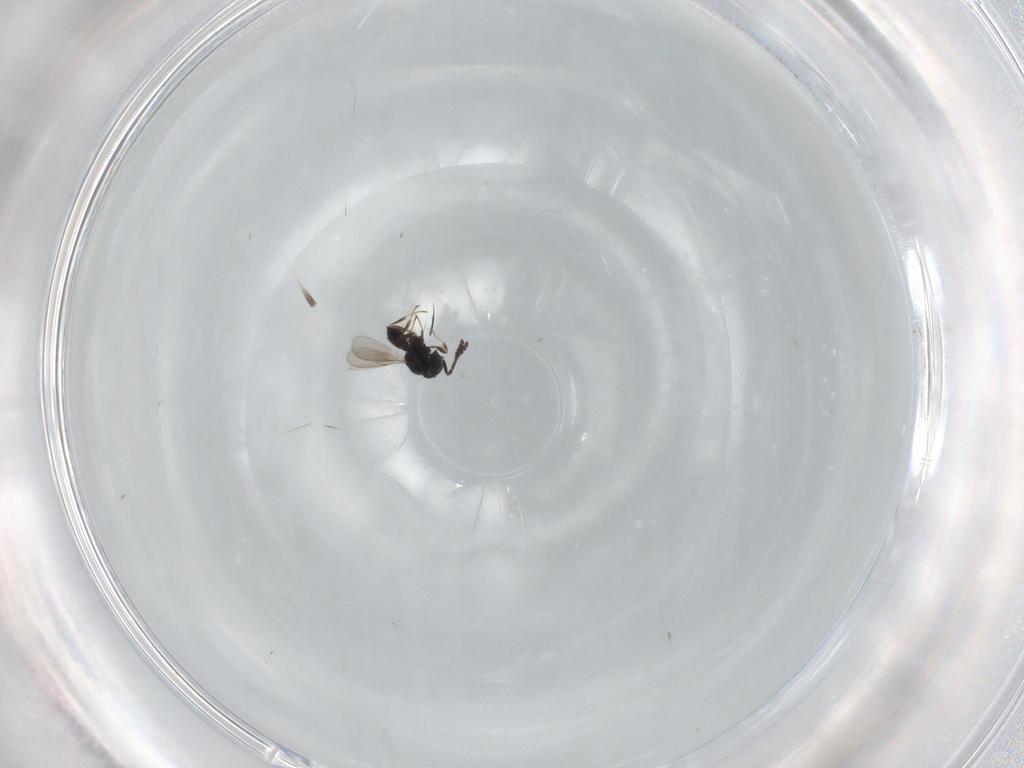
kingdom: Animalia
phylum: Arthropoda
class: Insecta
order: Hymenoptera
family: Scelionidae
